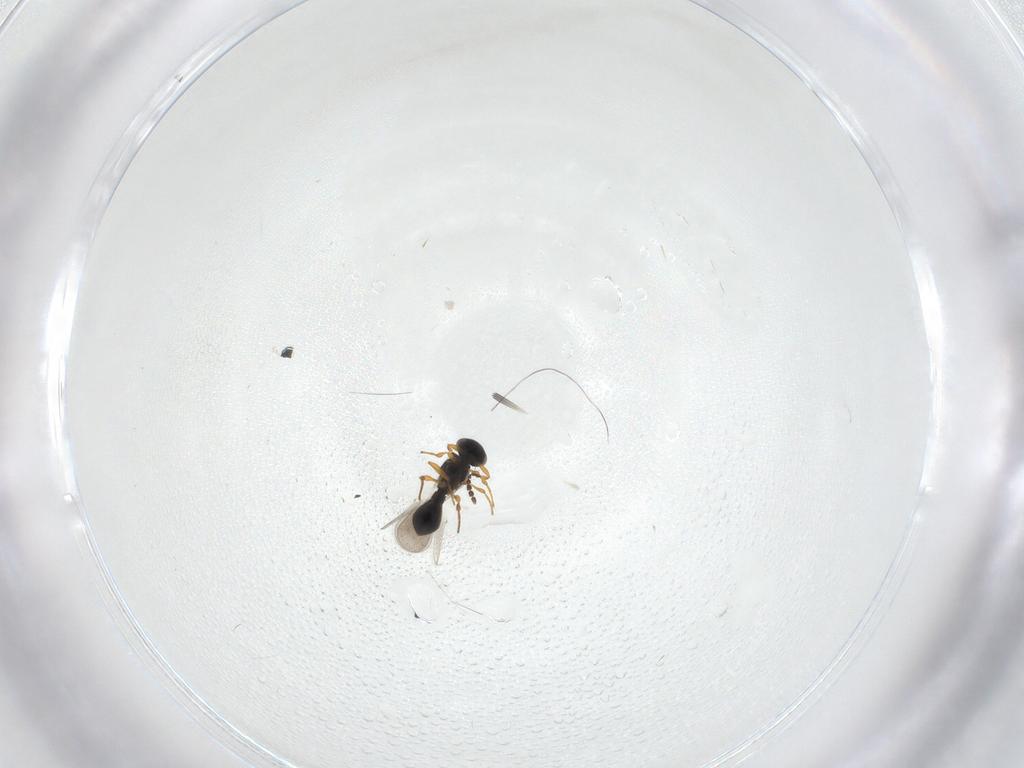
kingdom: Animalia
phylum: Arthropoda
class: Insecta
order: Hymenoptera
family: Platygastridae
